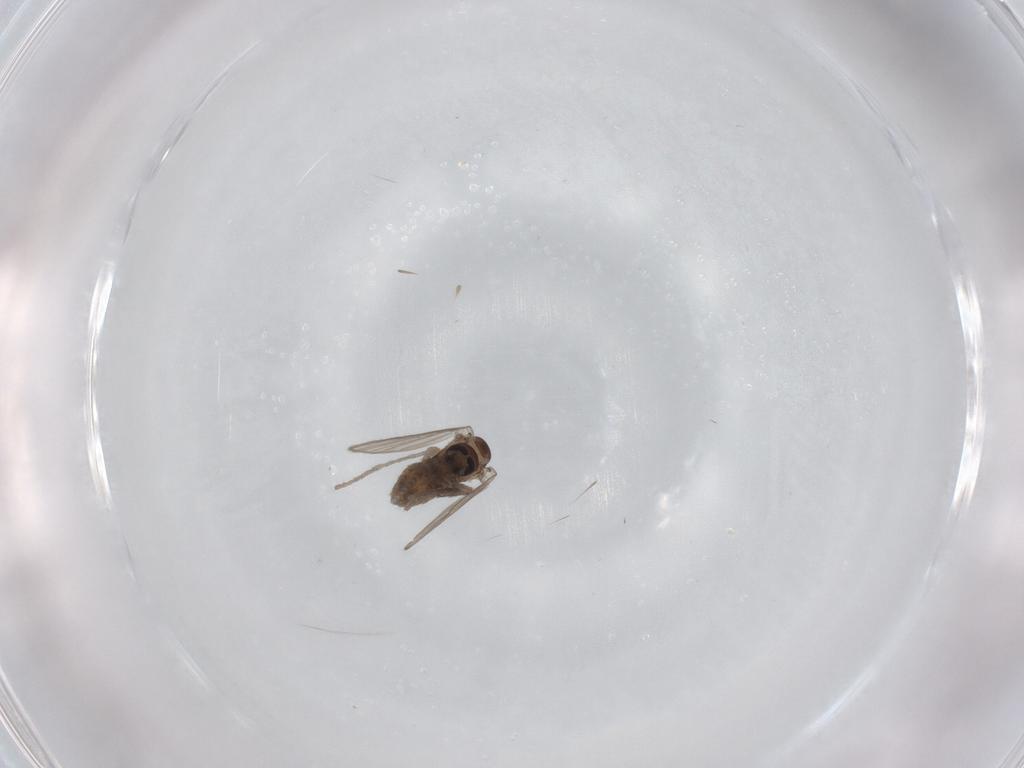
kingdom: Animalia
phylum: Arthropoda
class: Insecta
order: Diptera
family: Psychodidae
